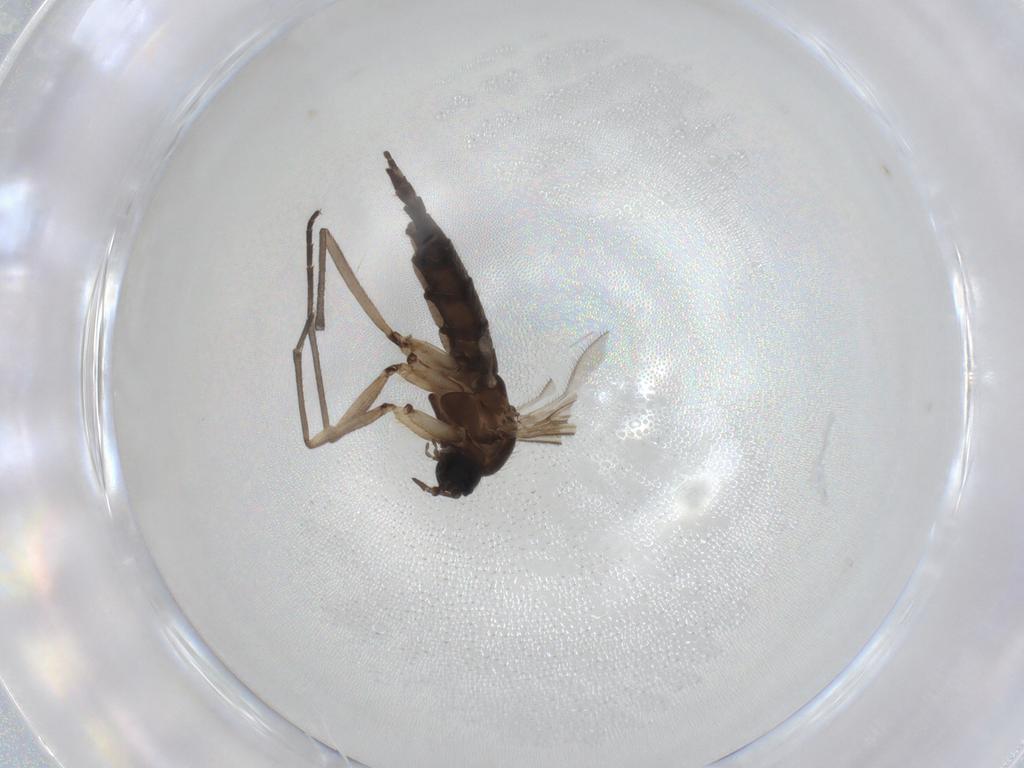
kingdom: Animalia
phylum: Arthropoda
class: Insecta
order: Diptera
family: Sciaridae
